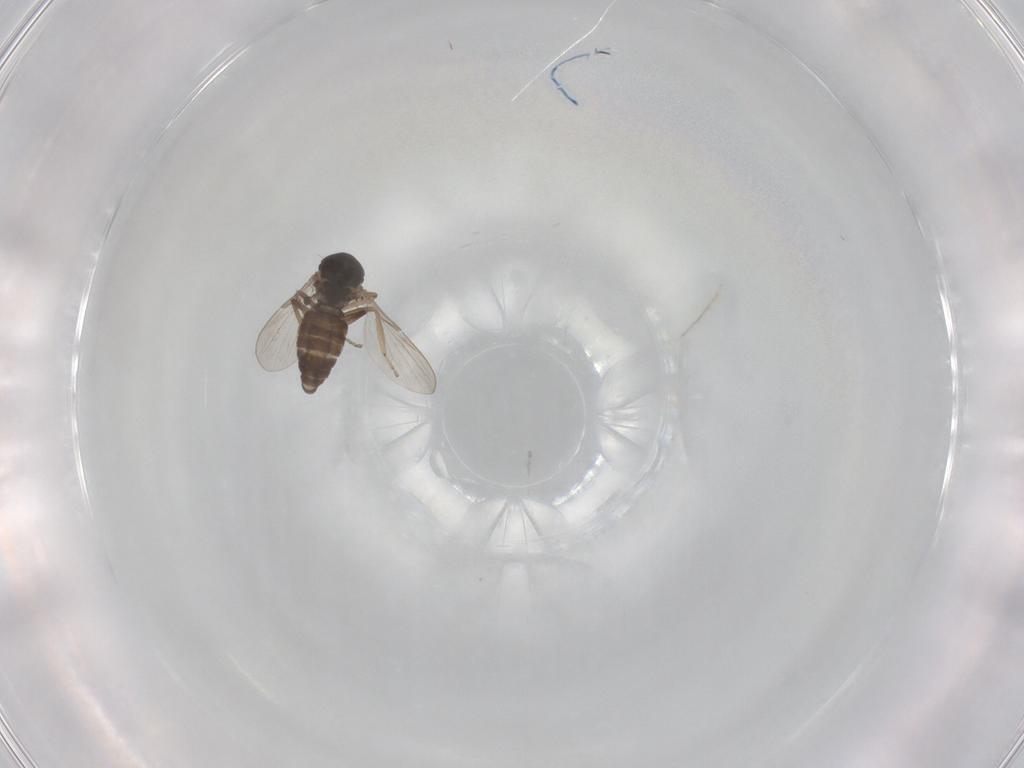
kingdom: Animalia
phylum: Arthropoda
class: Insecta
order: Diptera
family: Ceratopogonidae
